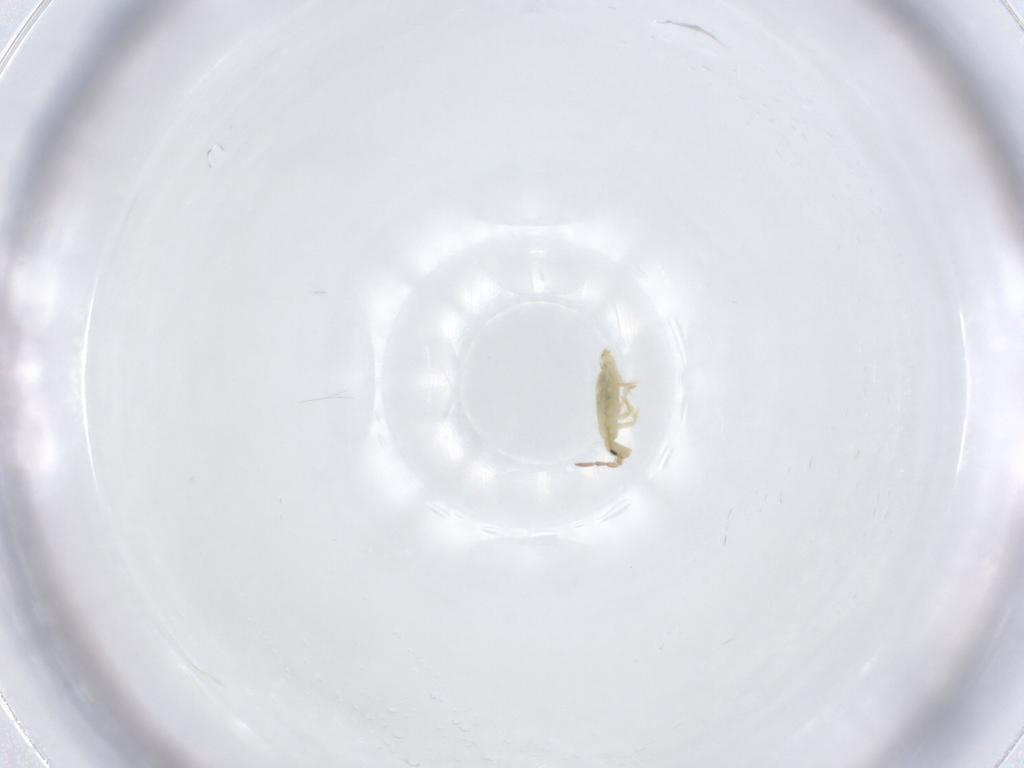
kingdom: Animalia
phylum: Arthropoda
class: Collembola
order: Entomobryomorpha
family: Entomobryidae
